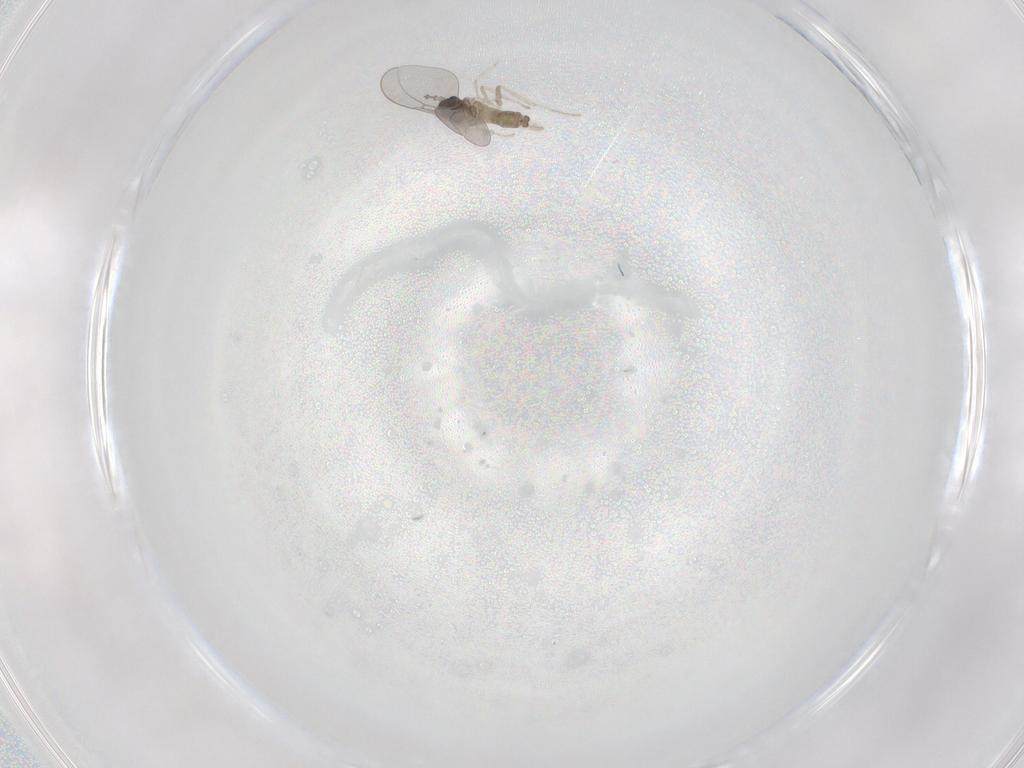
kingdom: Animalia
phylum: Arthropoda
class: Insecta
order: Diptera
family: Cecidomyiidae
